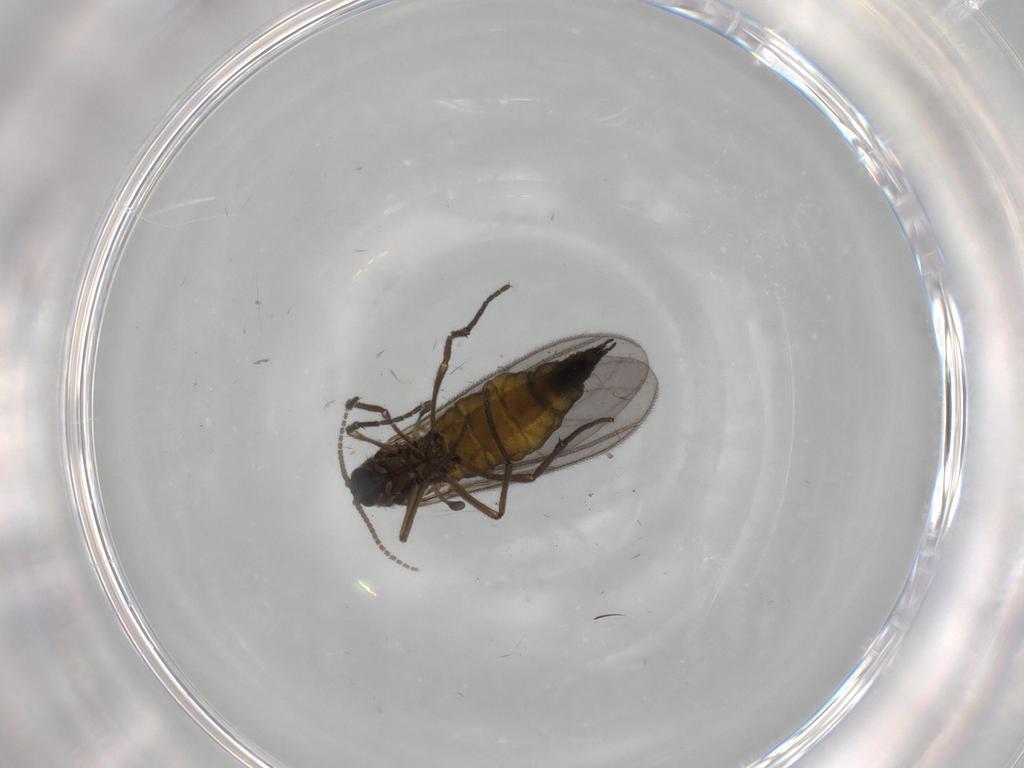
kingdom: Animalia
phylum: Arthropoda
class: Insecta
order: Diptera
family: Sciaridae
